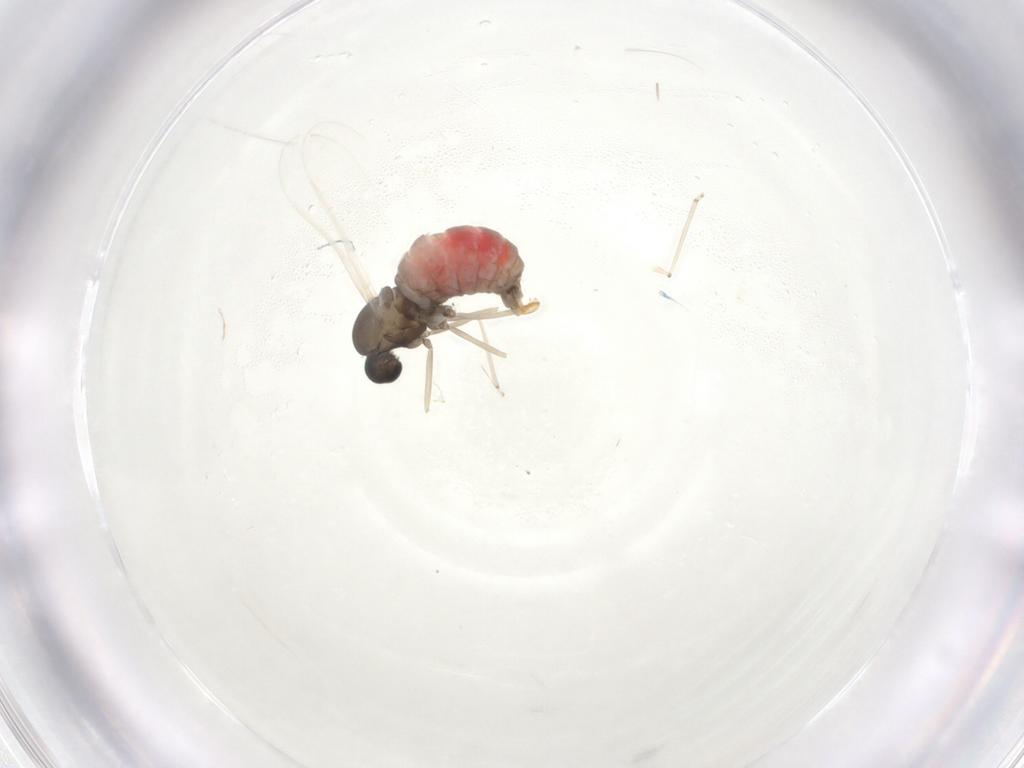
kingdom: Animalia
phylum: Arthropoda
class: Insecta
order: Diptera
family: Cecidomyiidae
